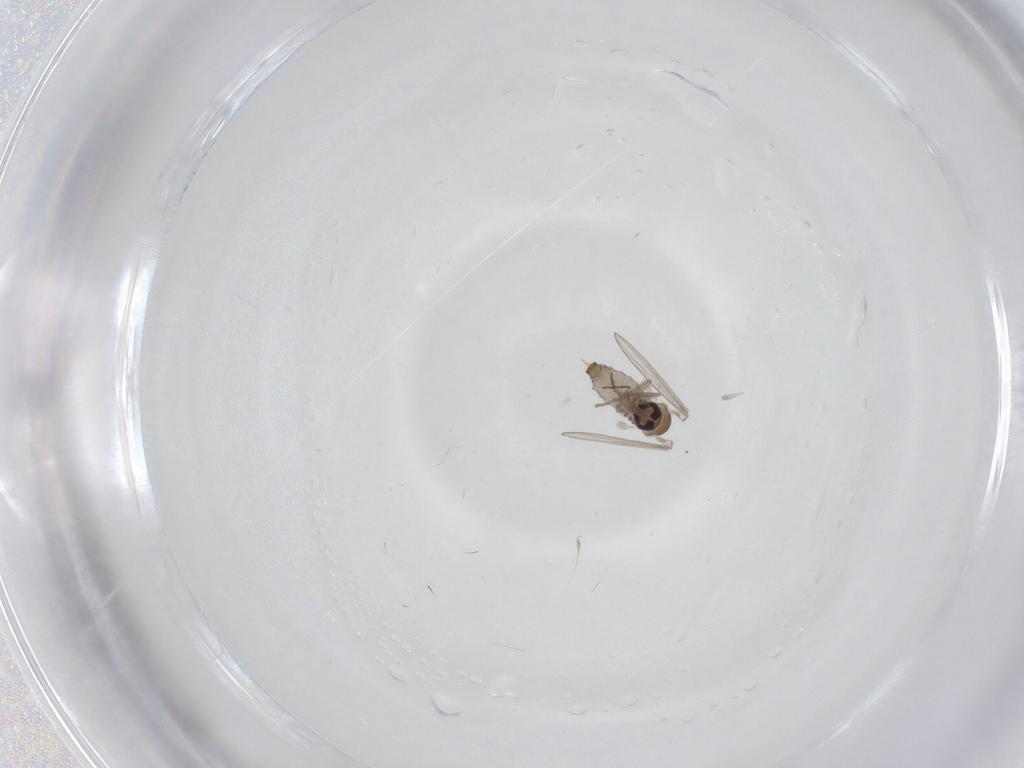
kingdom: Animalia
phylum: Arthropoda
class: Insecta
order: Diptera
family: Psychodidae
